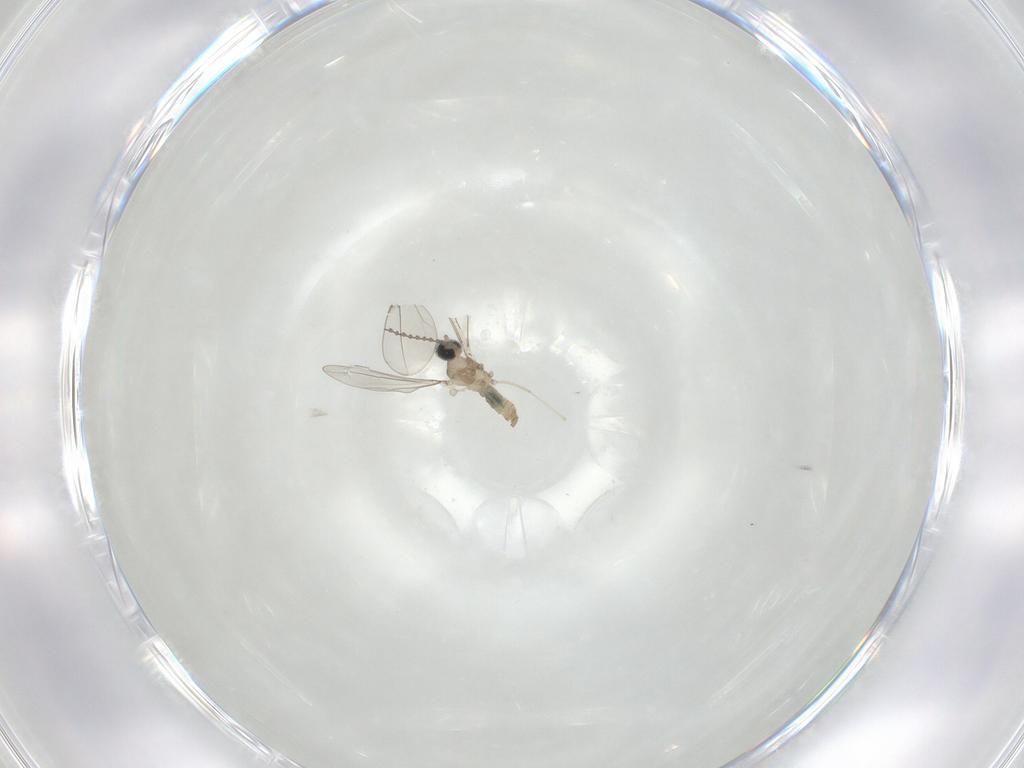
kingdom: Animalia
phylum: Arthropoda
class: Insecta
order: Diptera
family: Cecidomyiidae
